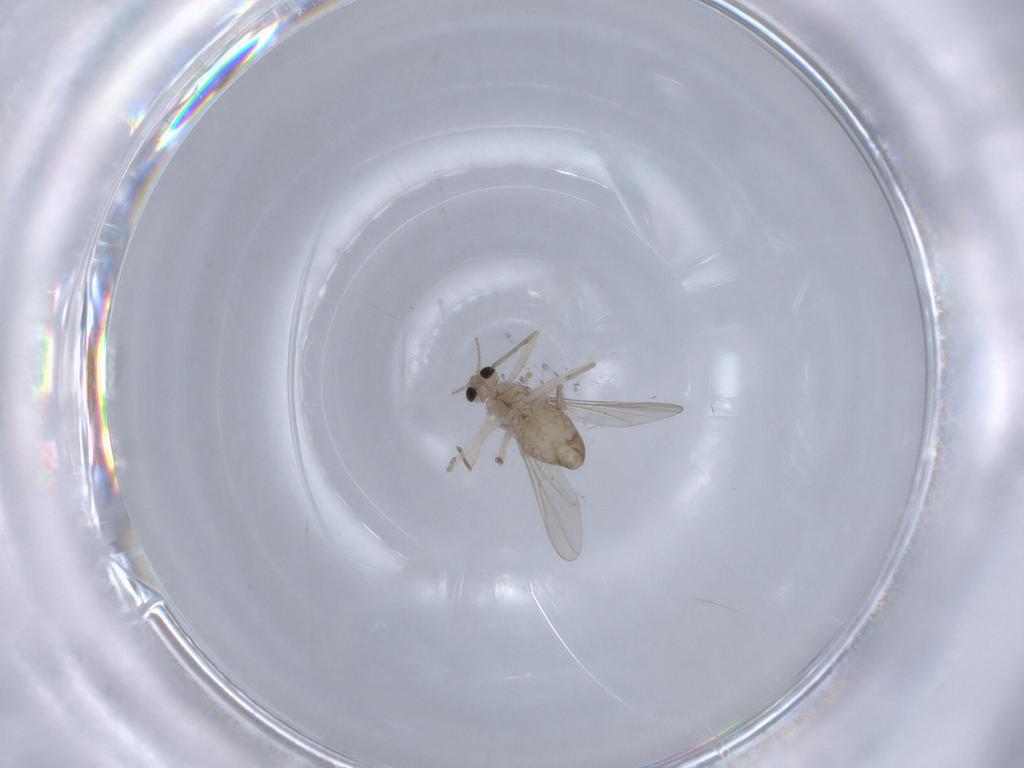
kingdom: Animalia
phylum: Arthropoda
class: Insecta
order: Diptera
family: Chironomidae
